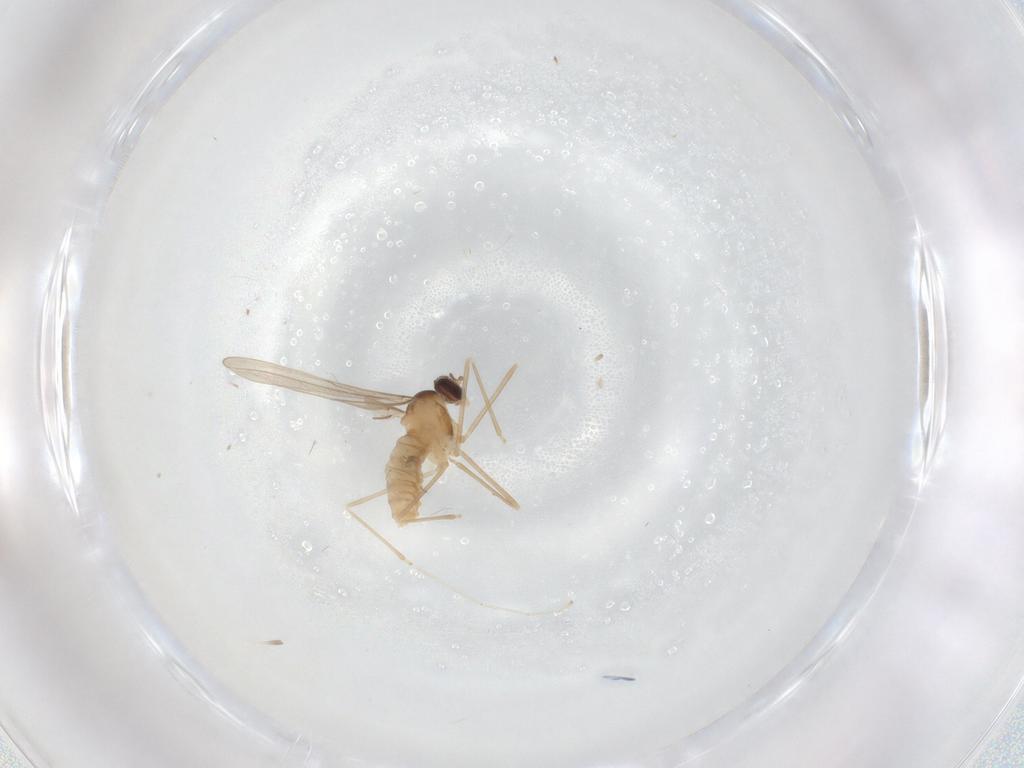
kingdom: Animalia
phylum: Arthropoda
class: Insecta
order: Diptera
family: Cecidomyiidae
